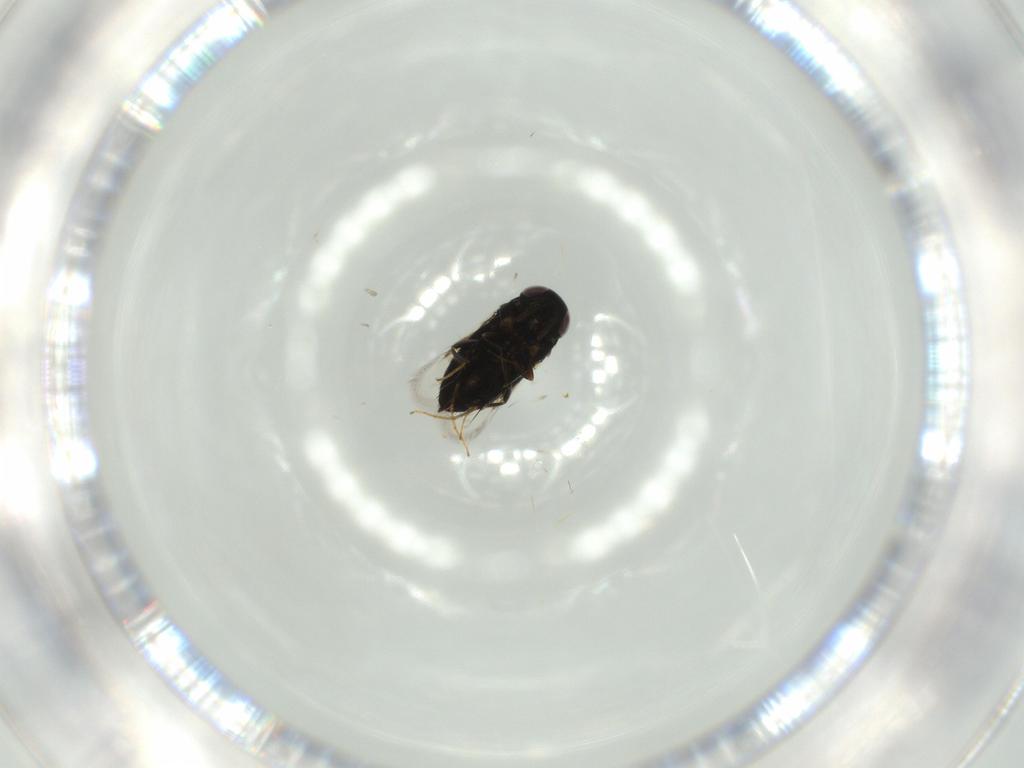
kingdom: Animalia
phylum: Arthropoda
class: Insecta
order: Hymenoptera
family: Signiphoridae
